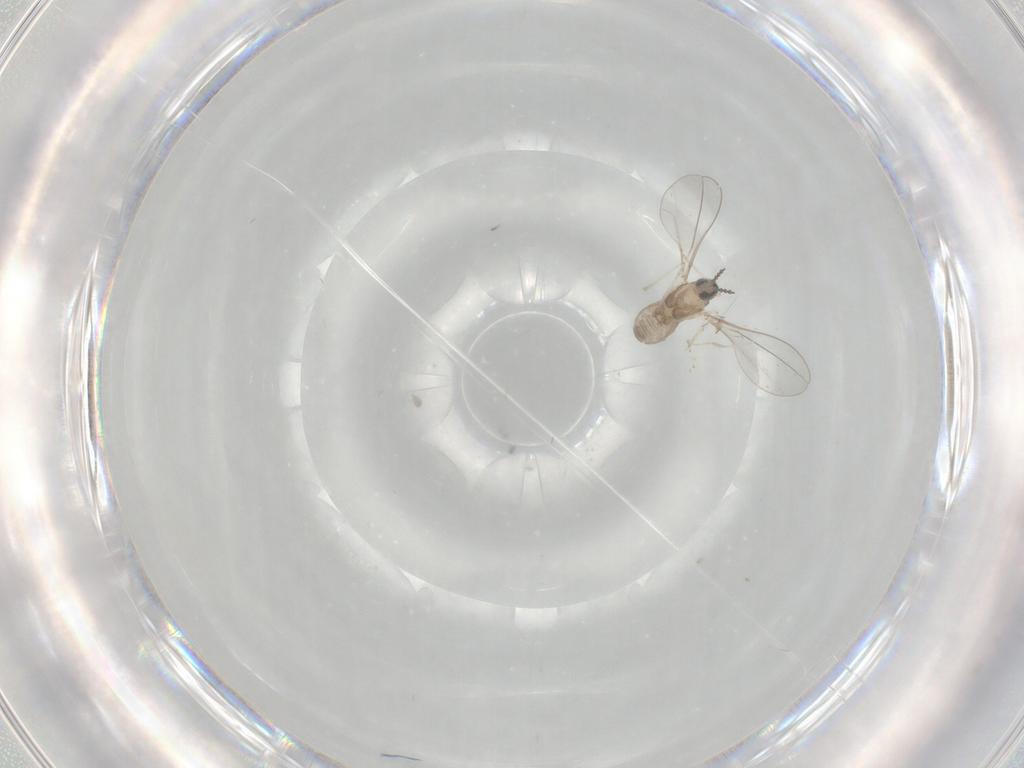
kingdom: Animalia
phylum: Arthropoda
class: Insecta
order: Diptera
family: Cecidomyiidae
